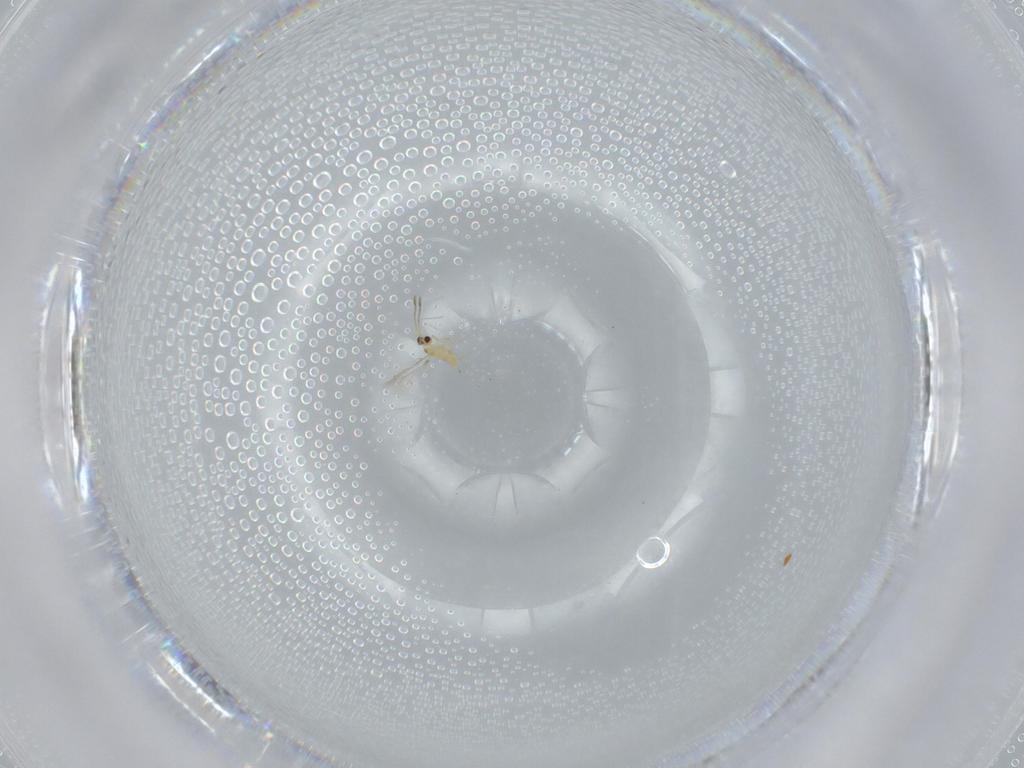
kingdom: Animalia
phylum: Arthropoda
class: Insecta
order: Hymenoptera
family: Mymaridae
